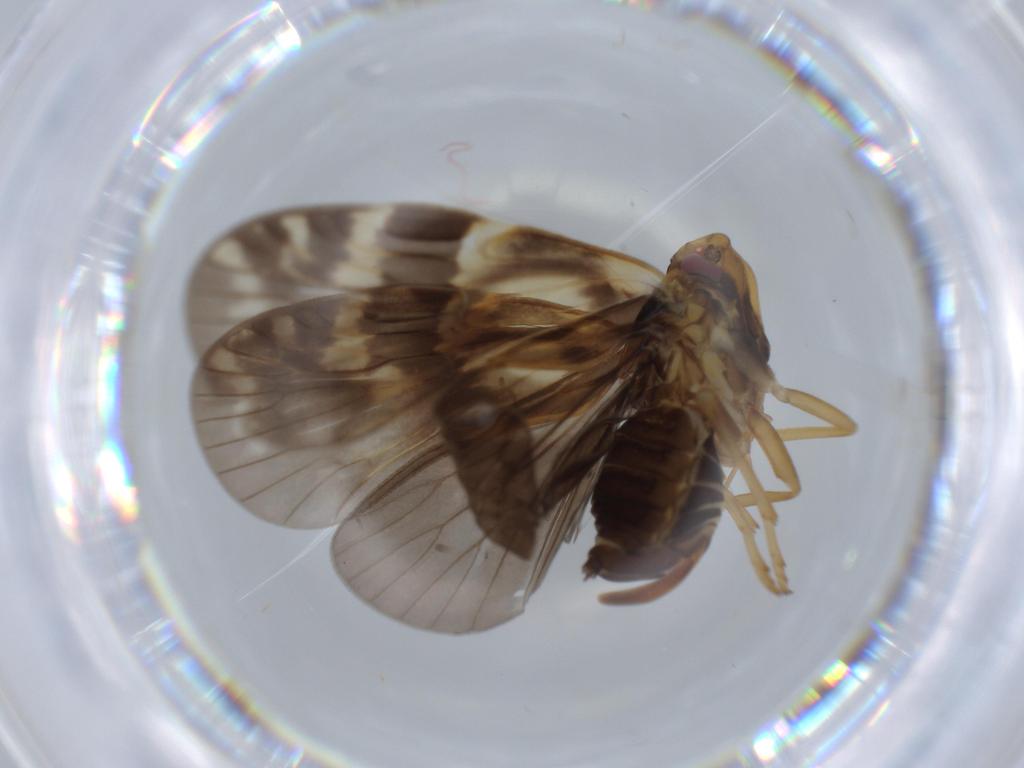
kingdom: Animalia
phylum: Arthropoda
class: Insecta
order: Hemiptera
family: Cixiidae
